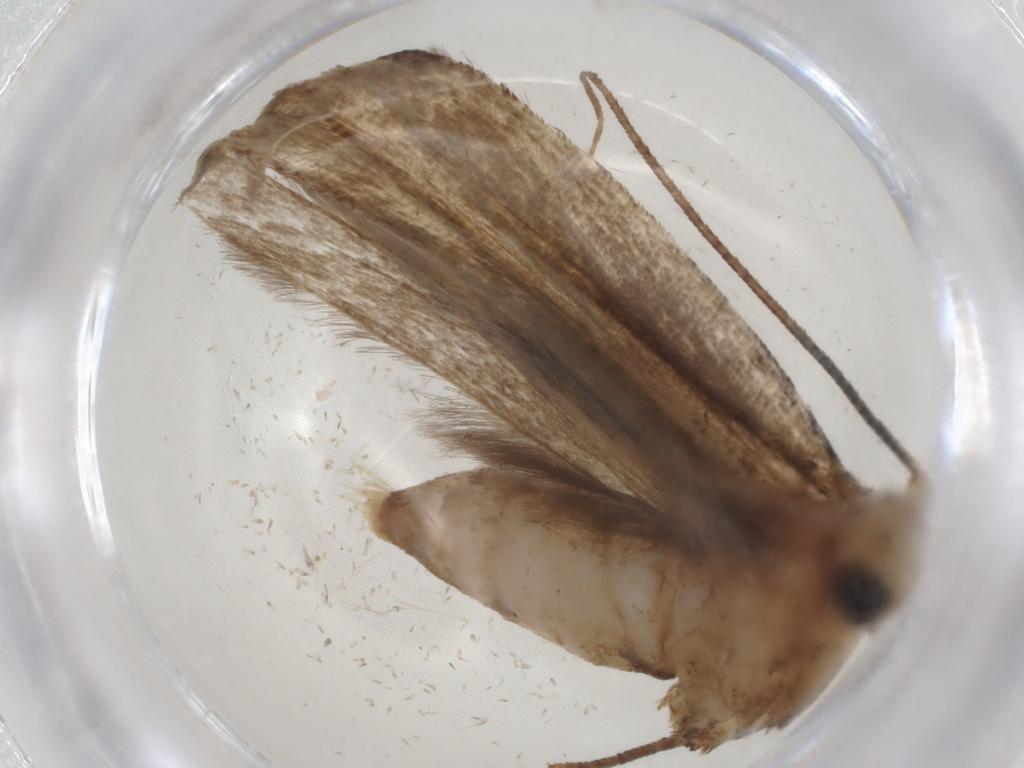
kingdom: Animalia
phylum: Arthropoda
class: Insecta
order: Lepidoptera
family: Yponomeutidae
